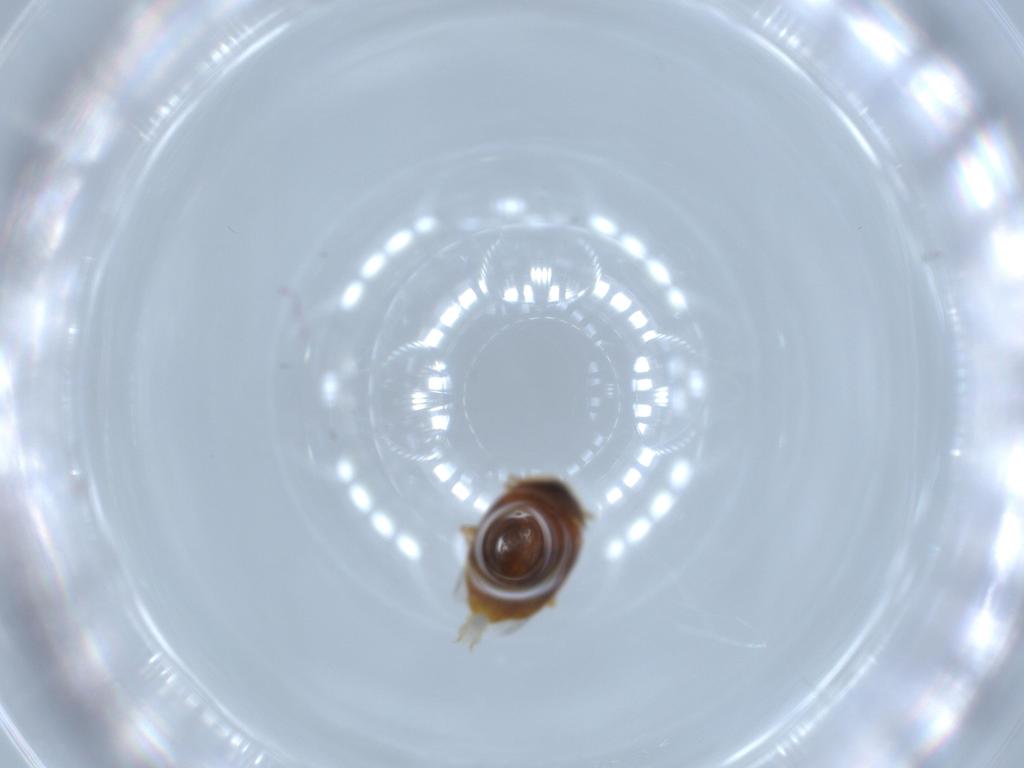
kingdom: Animalia
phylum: Arthropoda
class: Insecta
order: Coleoptera
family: Corylophidae
